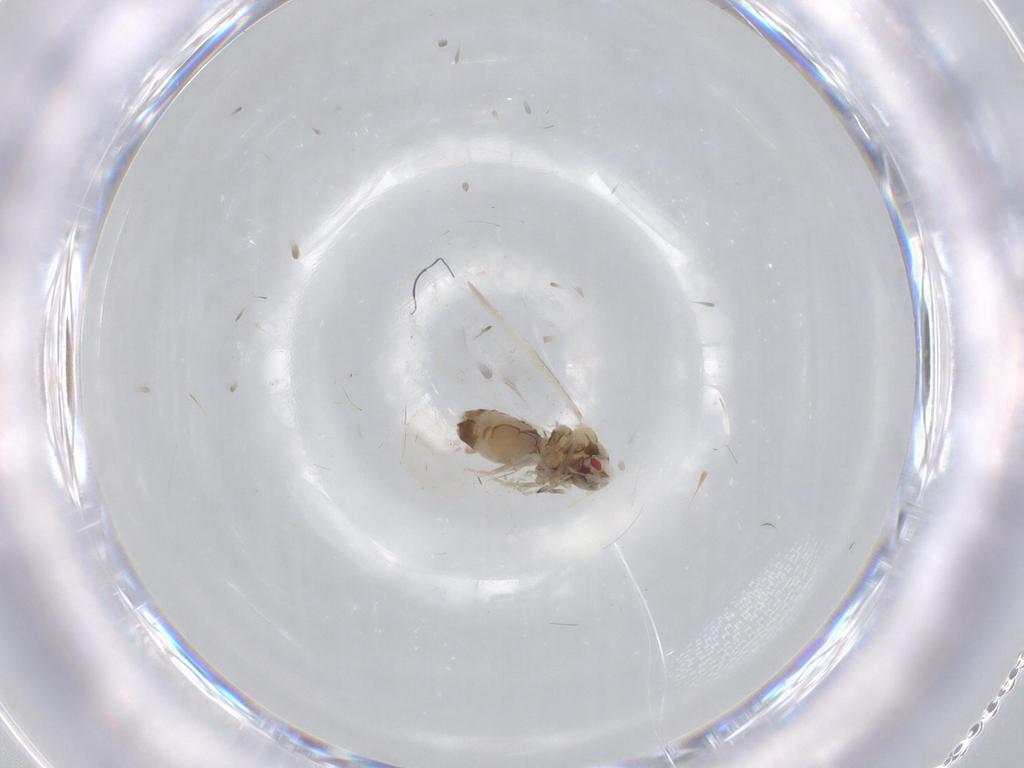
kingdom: Animalia
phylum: Arthropoda
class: Insecta
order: Hemiptera
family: Aleyrodidae
